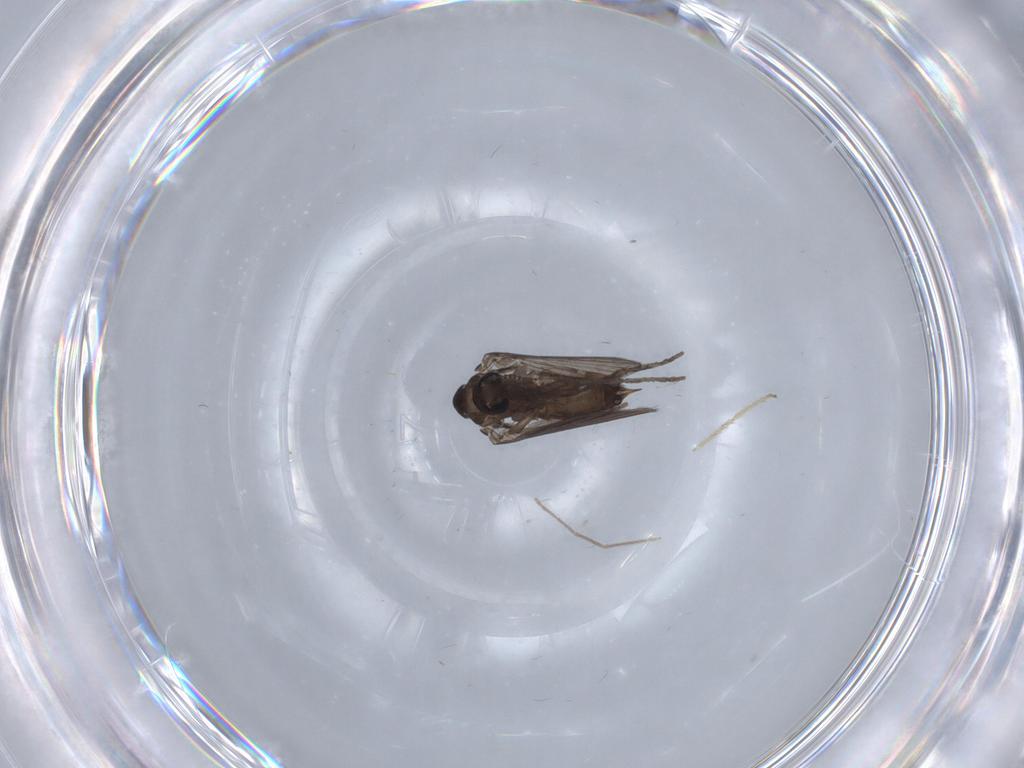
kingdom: Animalia
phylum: Arthropoda
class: Insecta
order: Diptera
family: Psychodidae
